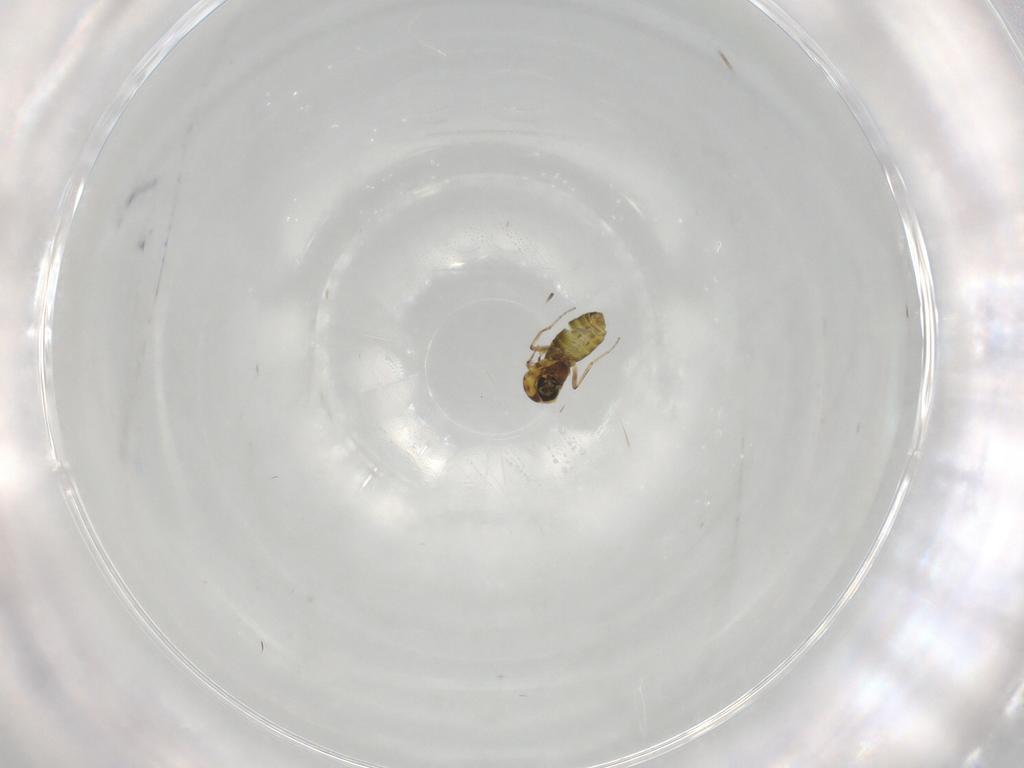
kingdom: Animalia
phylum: Arthropoda
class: Insecta
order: Diptera
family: Ceratopogonidae
